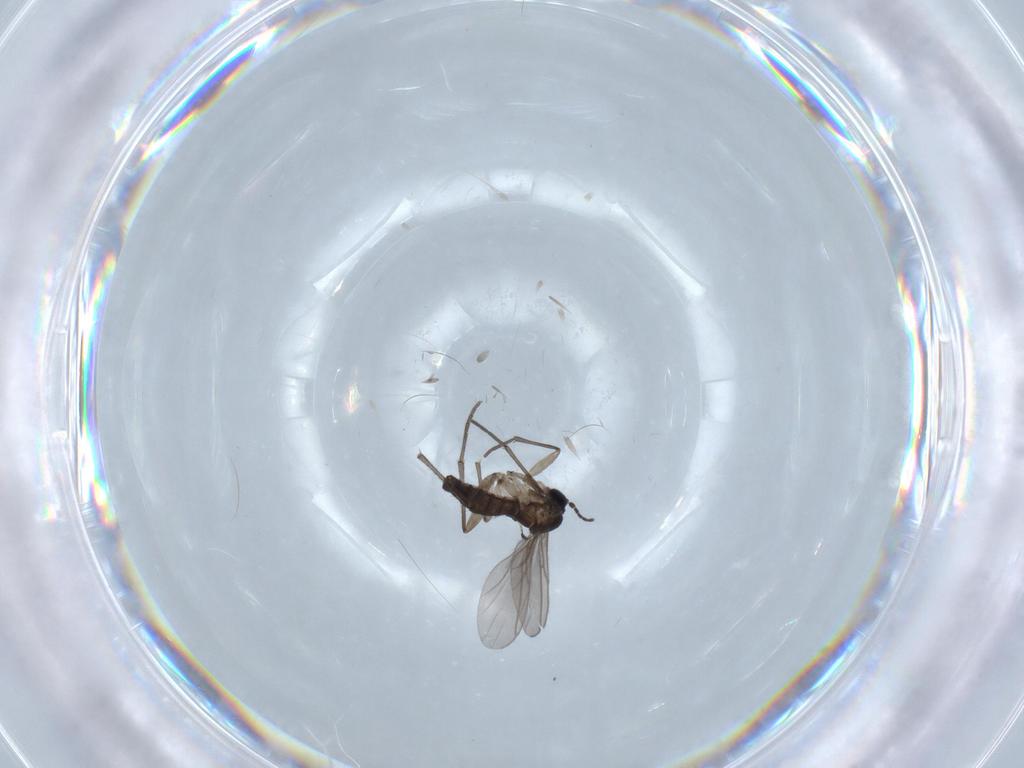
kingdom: Animalia
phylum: Arthropoda
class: Insecta
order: Diptera
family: Sciaridae
